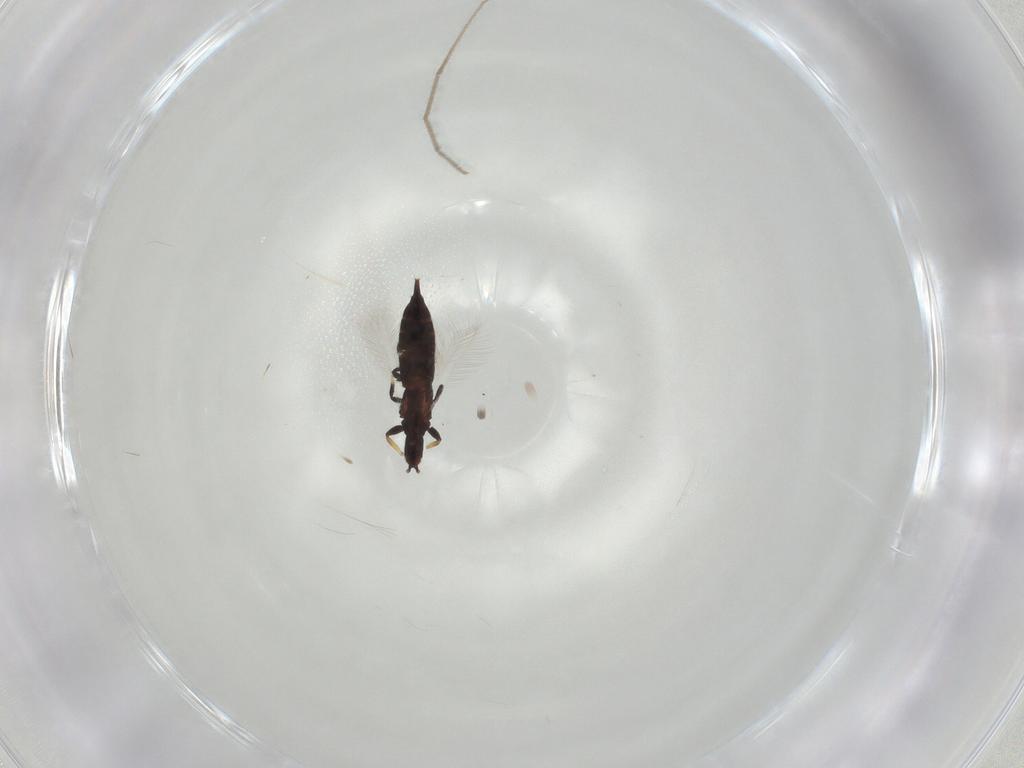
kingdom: Animalia
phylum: Arthropoda
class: Insecta
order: Thysanoptera
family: Phlaeothripidae
